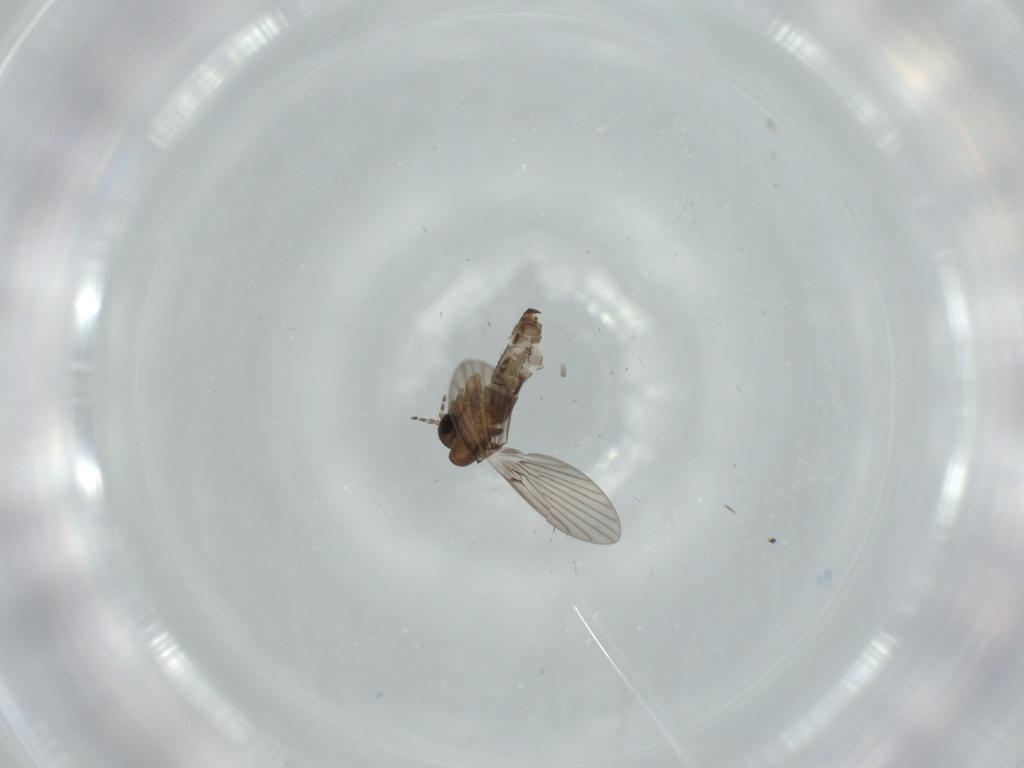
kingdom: Animalia
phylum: Arthropoda
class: Insecta
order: Diptera
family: Psychodidae
